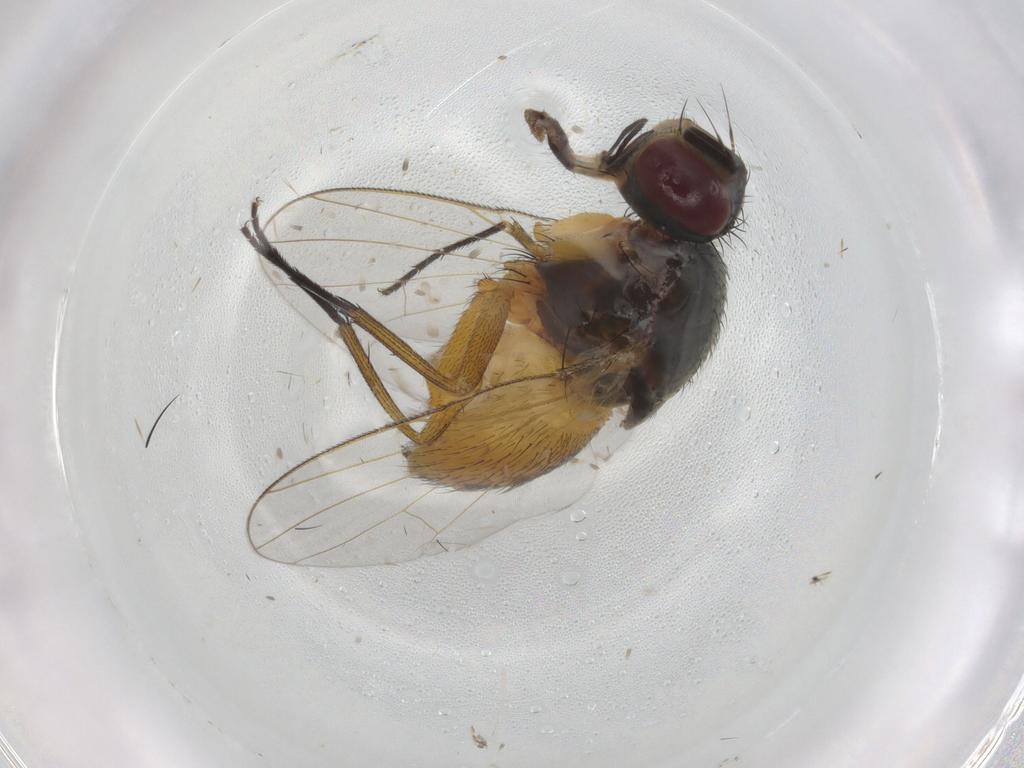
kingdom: Animalia
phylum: Arthropoda
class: Insecta
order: Diptera
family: Muscidae
